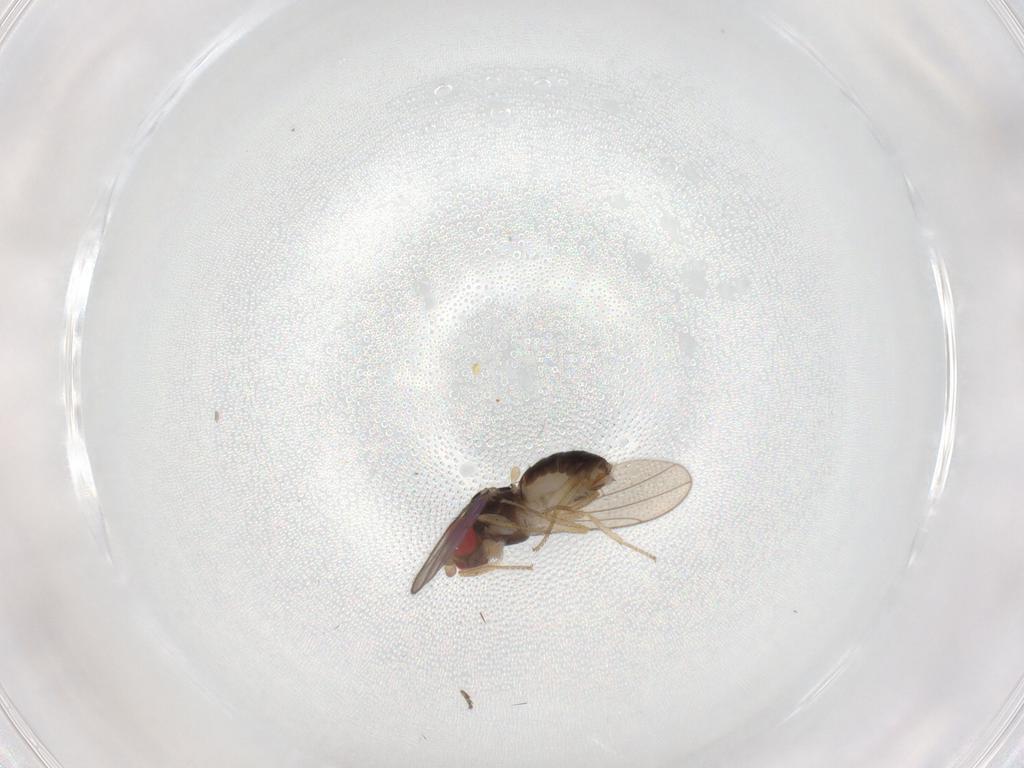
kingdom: Animalia
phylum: Arthropoda
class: Insecta
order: Diptera
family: Drosophilidae
